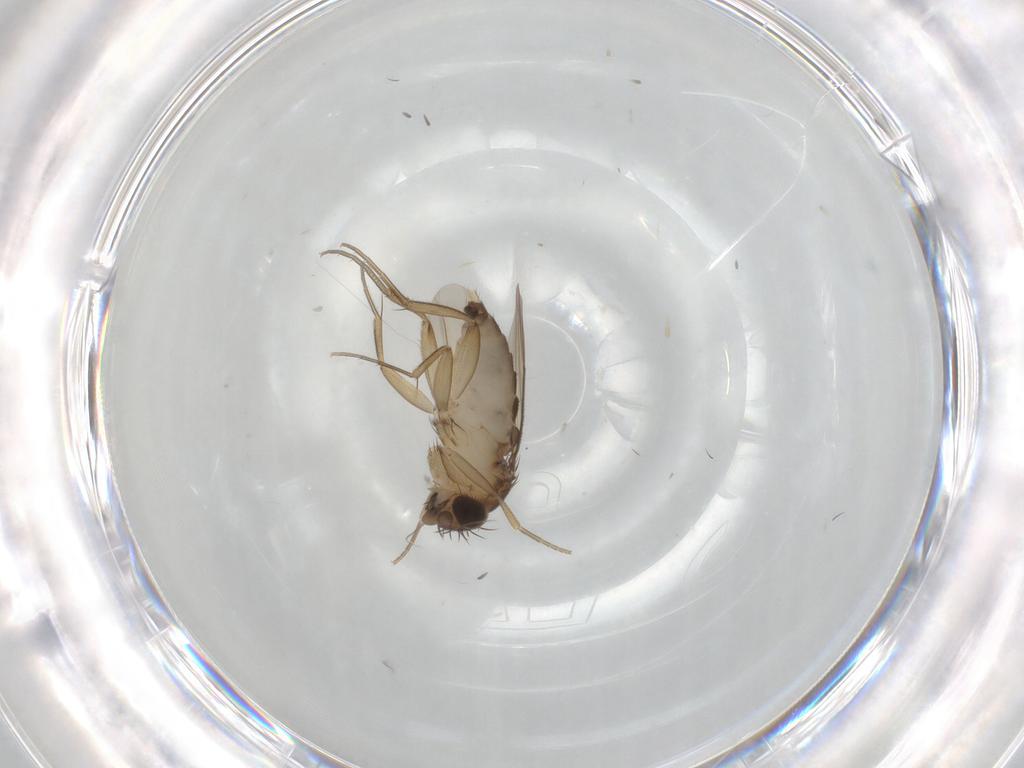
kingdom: Animalia
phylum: Arthropoda
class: Insecta
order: Diptera
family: Phoridae
